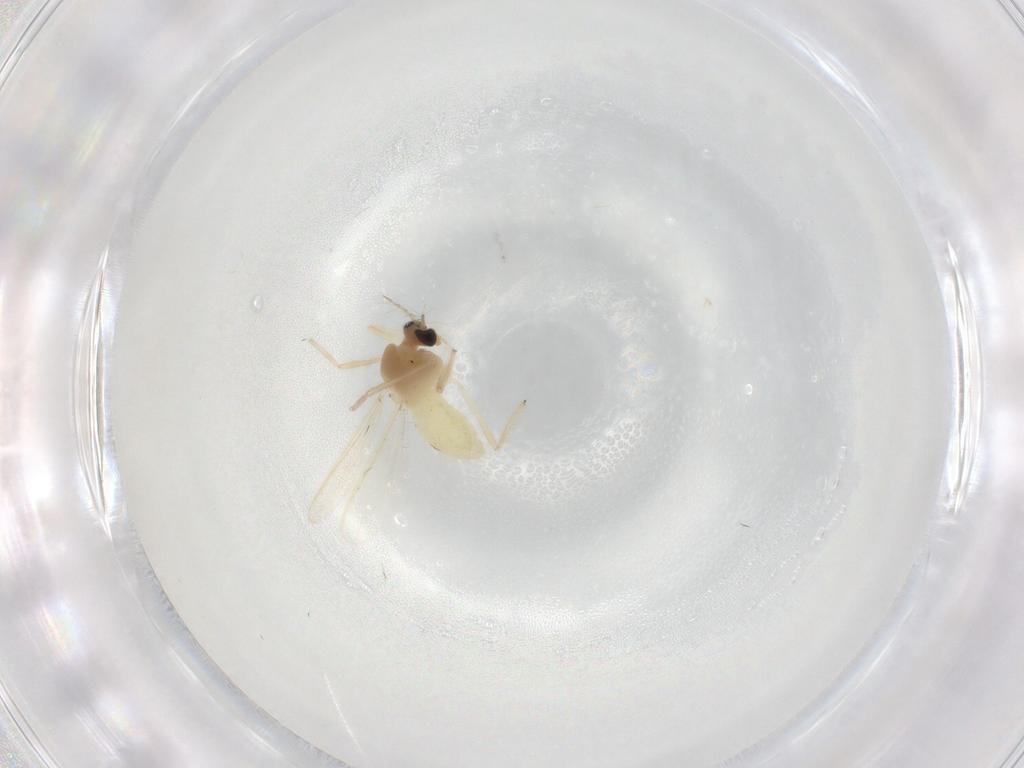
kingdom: Animalia
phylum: Arthropoda
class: Insecta
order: Diptera
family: Chironomidae
